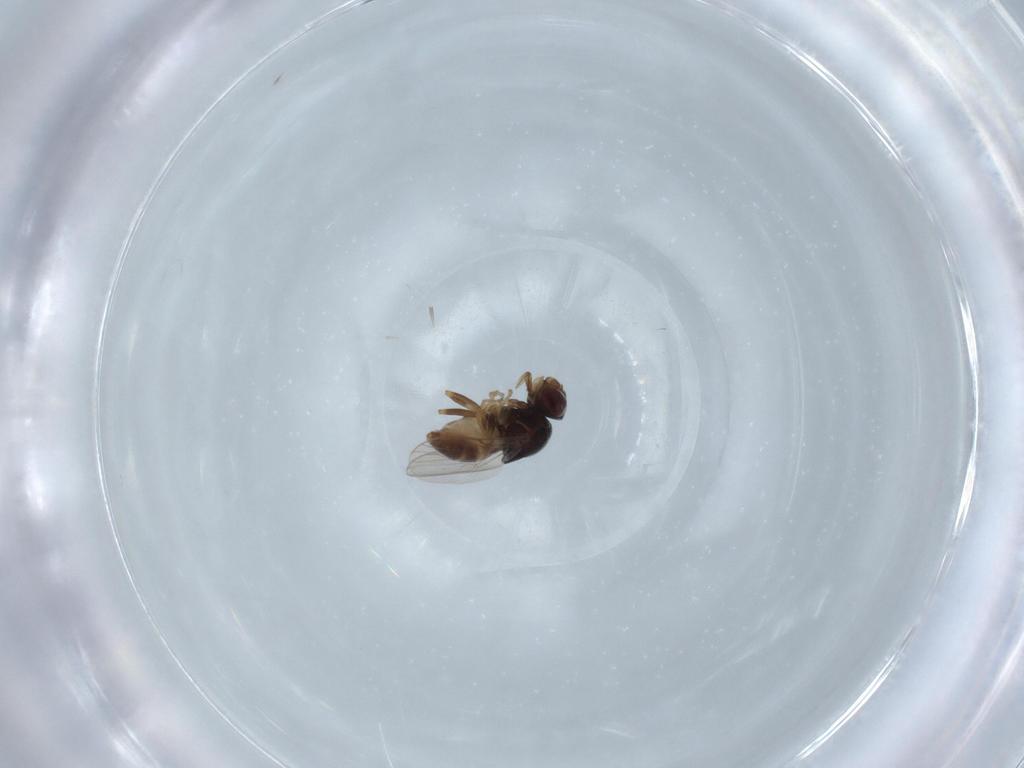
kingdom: Animalia
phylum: Arthropoda
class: Insecta
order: Diptera
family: Chloropidae
